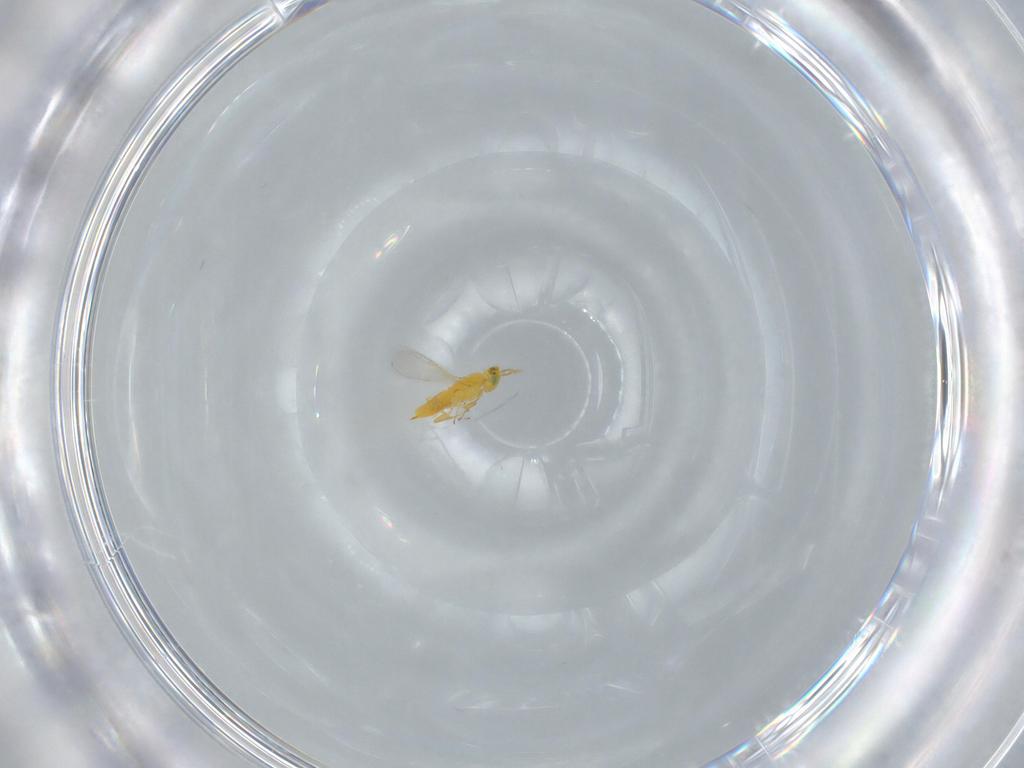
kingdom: Animalia
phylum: Arthropoda
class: Insecta
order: Hymenoptera
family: Aphelinidae
